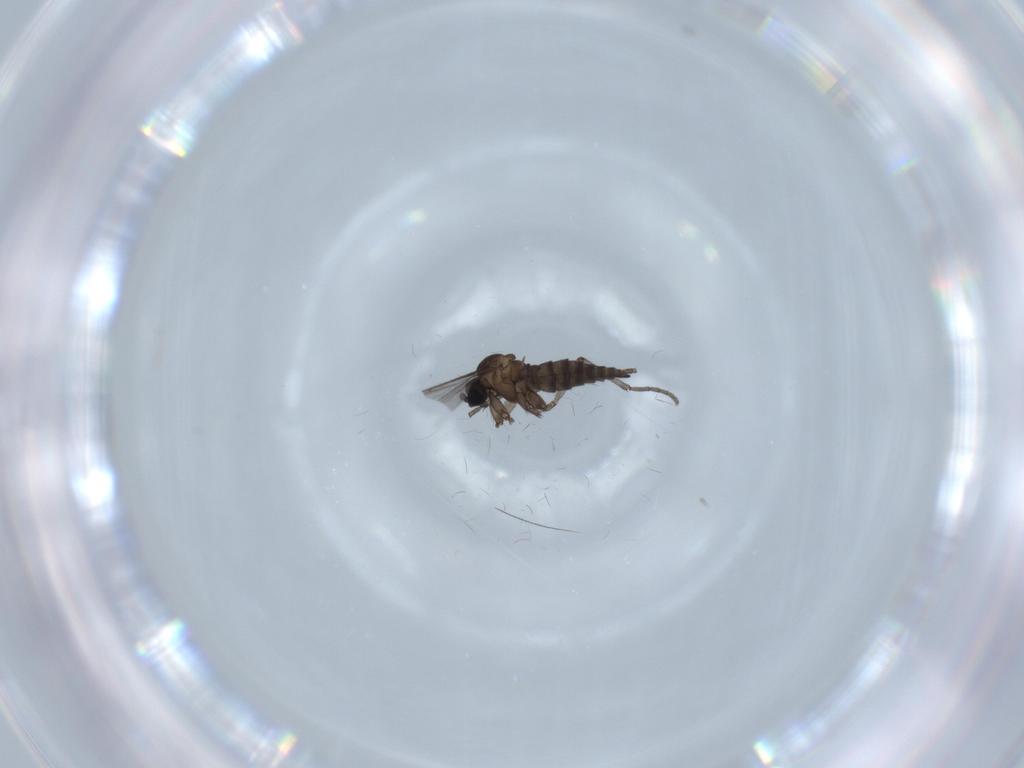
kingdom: Animalia
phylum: Arthropoda
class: Insecta
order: Diptera
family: Sciaridae
